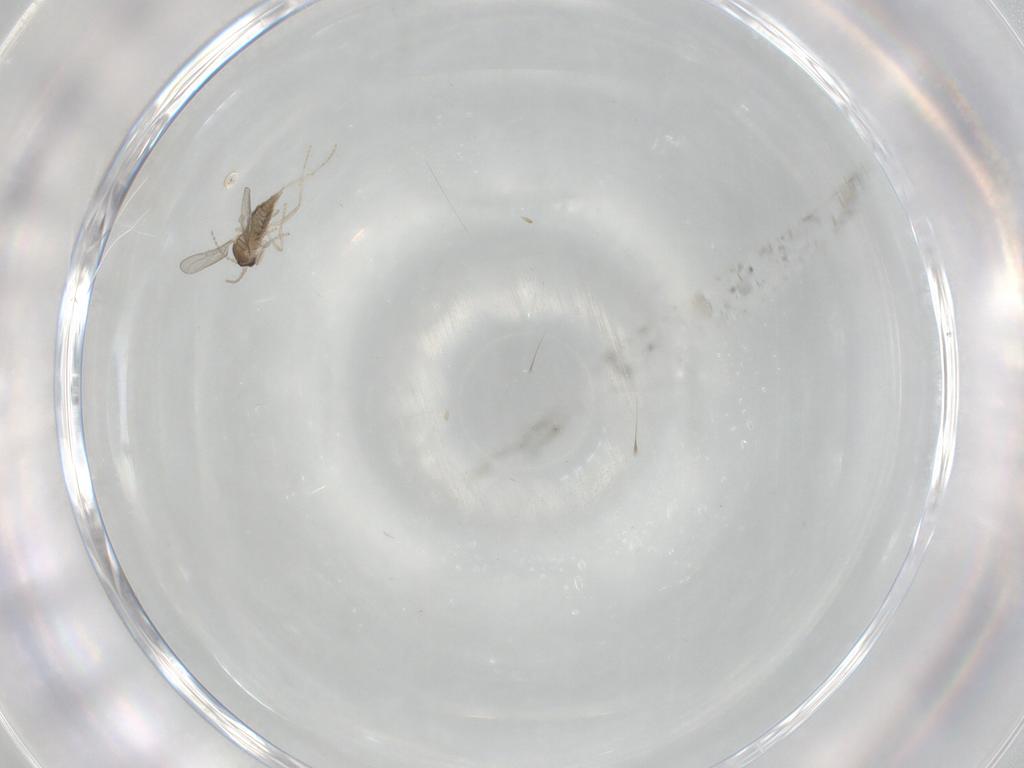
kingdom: Animalia
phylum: Arthropoda
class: Insecta
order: Diptera
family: Cecidomyiidae
